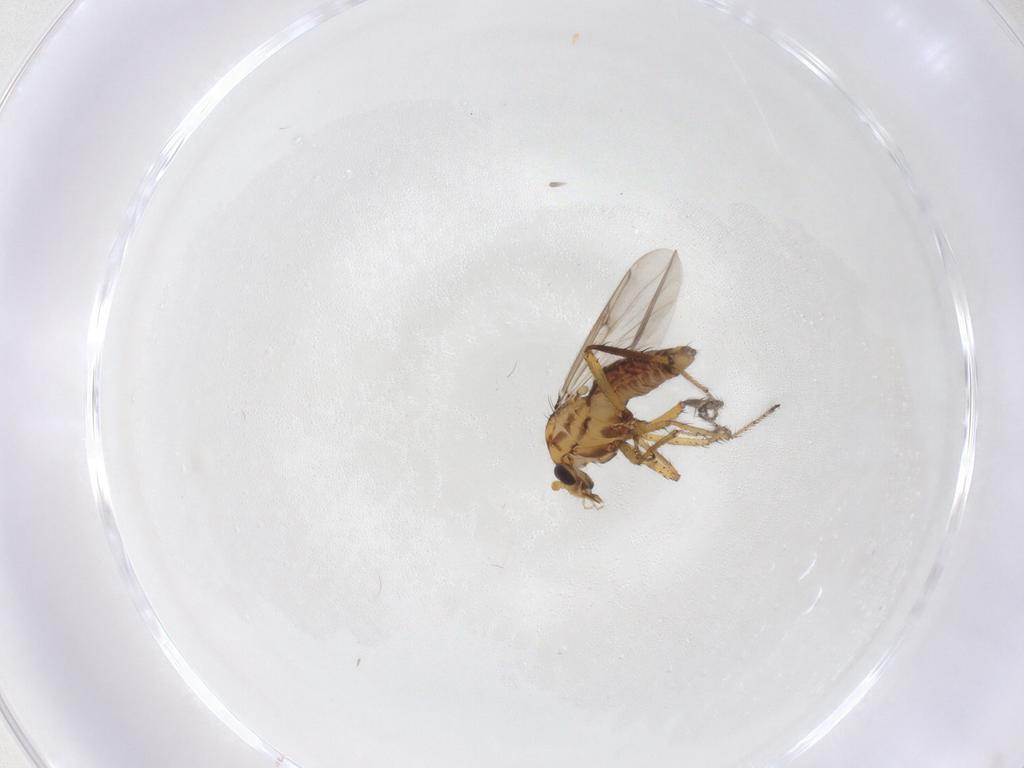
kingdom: Animalia
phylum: Arthropoda
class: Insecta
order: Diptera
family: Ceratopogonidae
